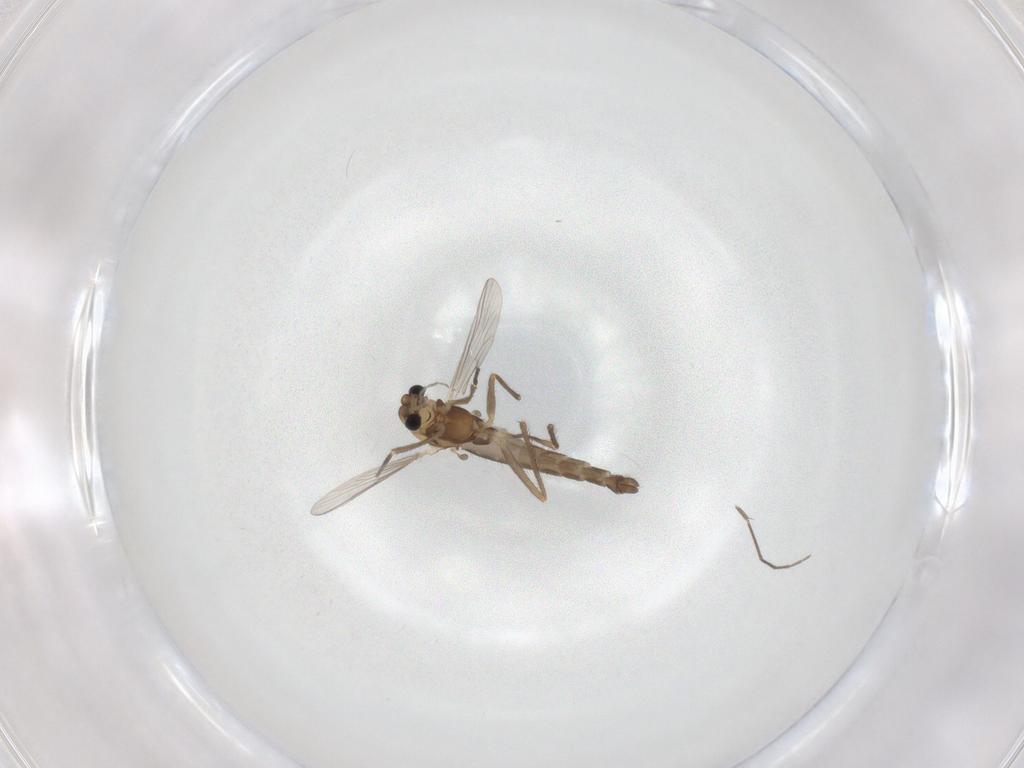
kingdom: Animalia
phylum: Arthropoda
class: Insecta
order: Diptera
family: Chironomidae
